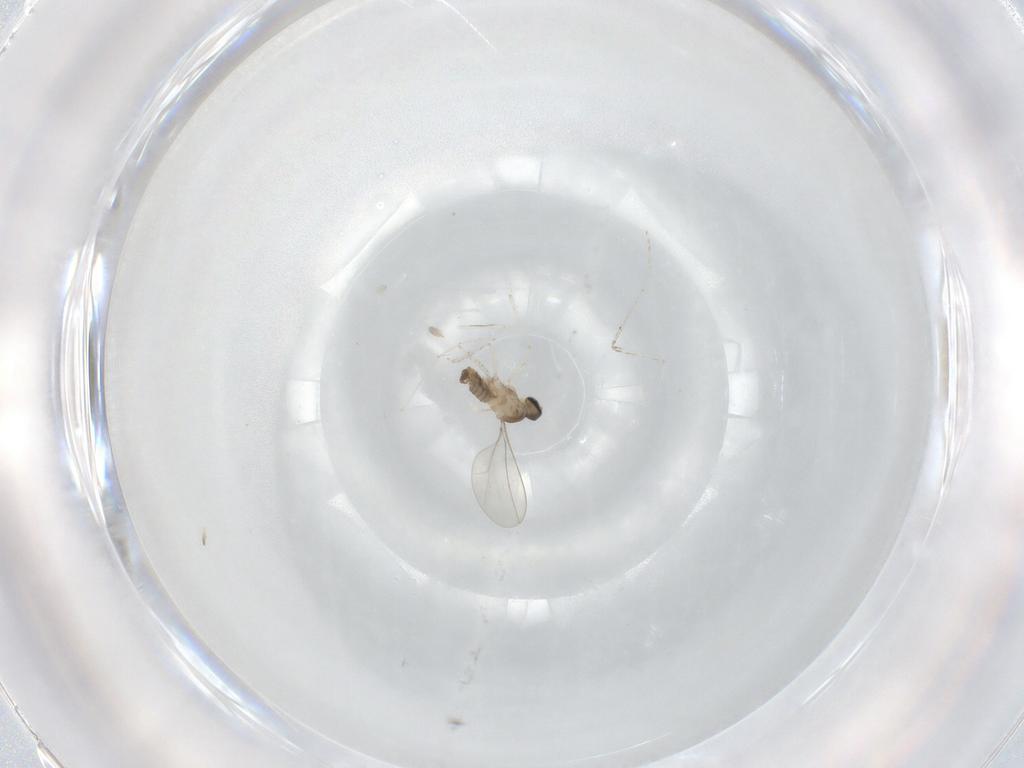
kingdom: Animalia
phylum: Arthropoda
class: Insecta
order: Diptera
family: Cecidomyiidae
